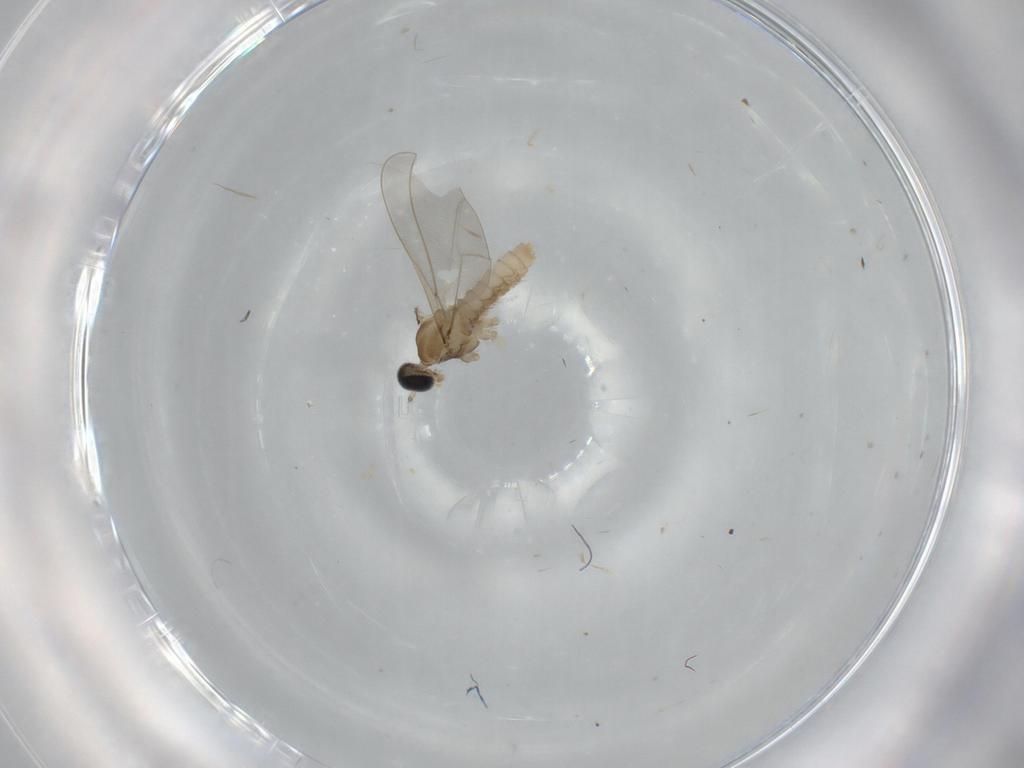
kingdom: Animalia
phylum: Arthropoda
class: Insecta
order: Diptera
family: Cecidomyiidae
